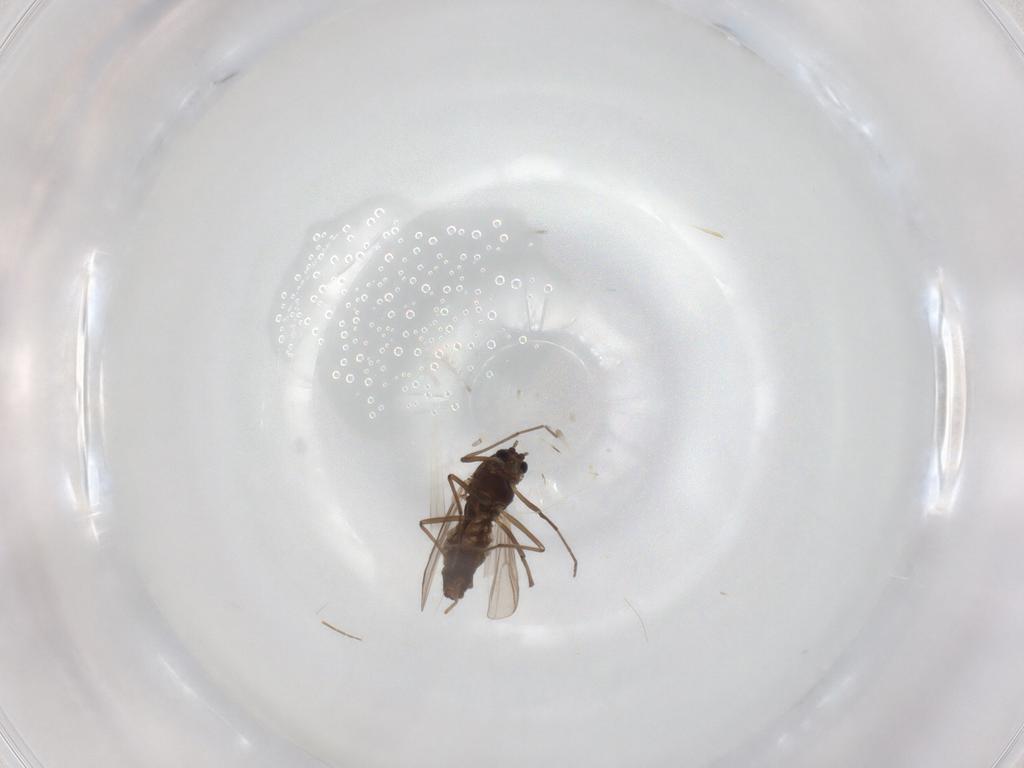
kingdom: Animalia
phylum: Arthropoda
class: Insecta
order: Diptera
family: Chironomidae
